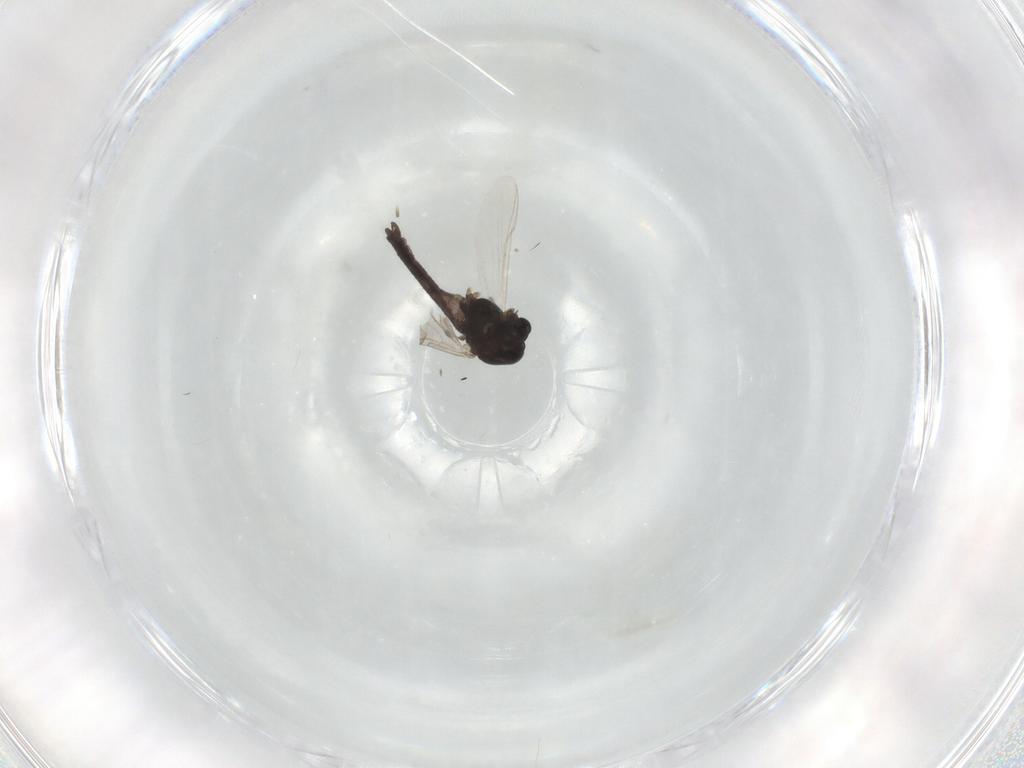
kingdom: Animalia
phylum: Arthropoda
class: Insecta
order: Diptera
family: Chironomidae
